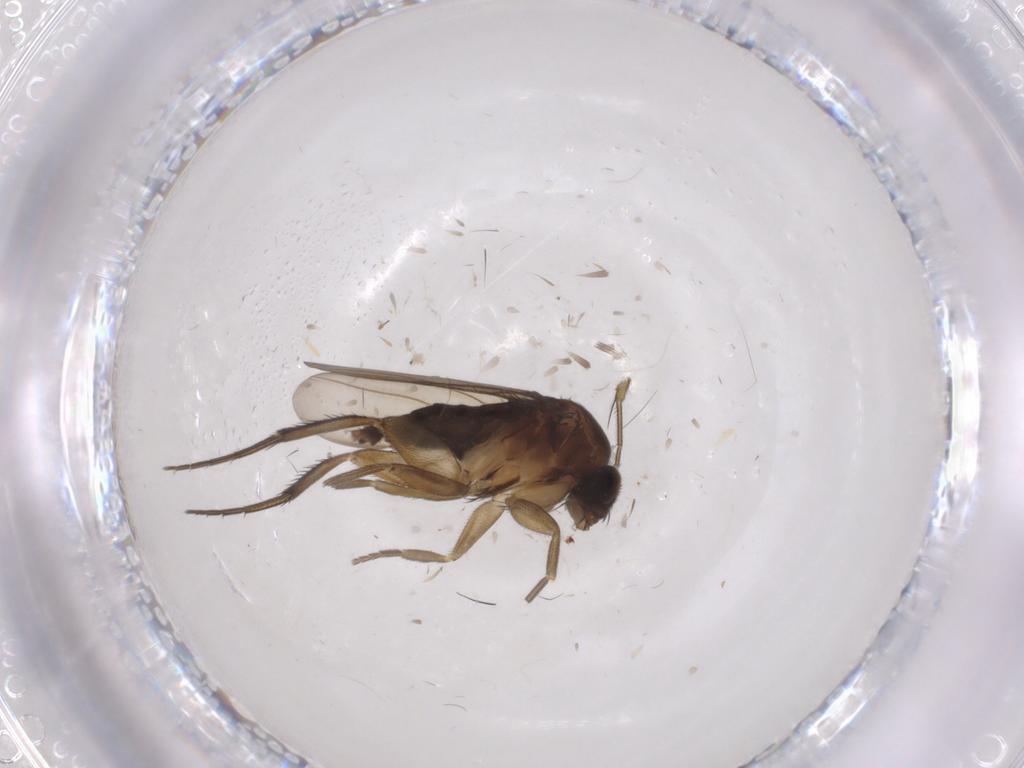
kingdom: Animalia
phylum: Arthropoda
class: Insecta
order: Diptera
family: Phoridae
